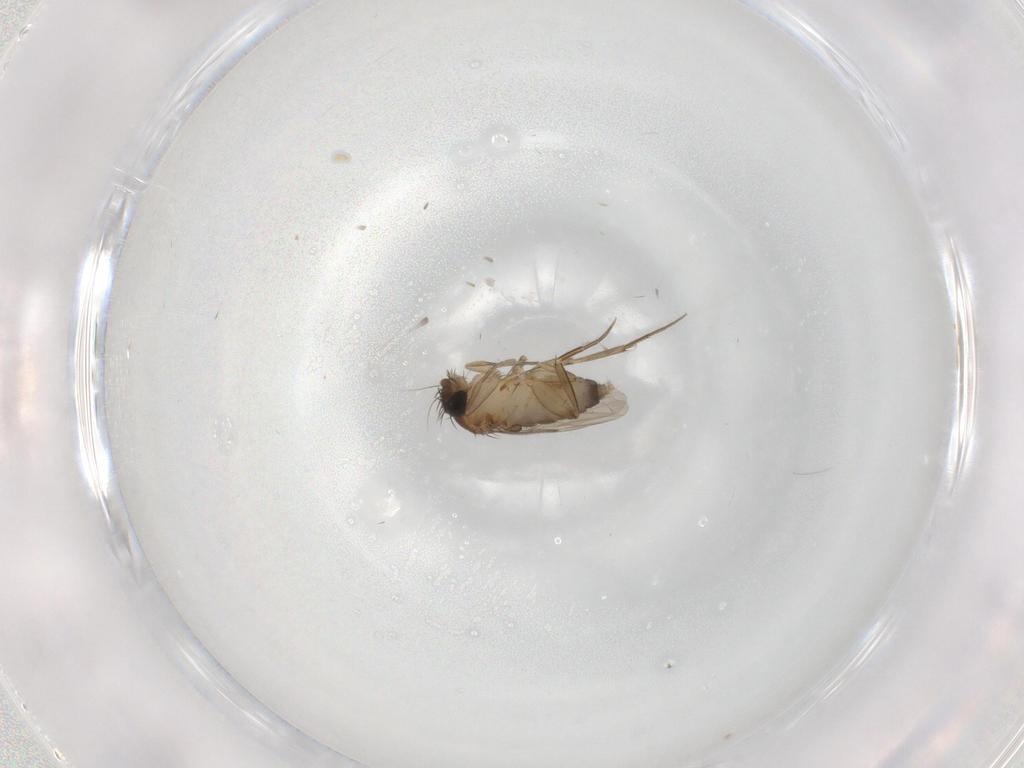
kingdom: Animalia
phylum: Arthropoda
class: Insecta
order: Diptera
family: Phoridae
